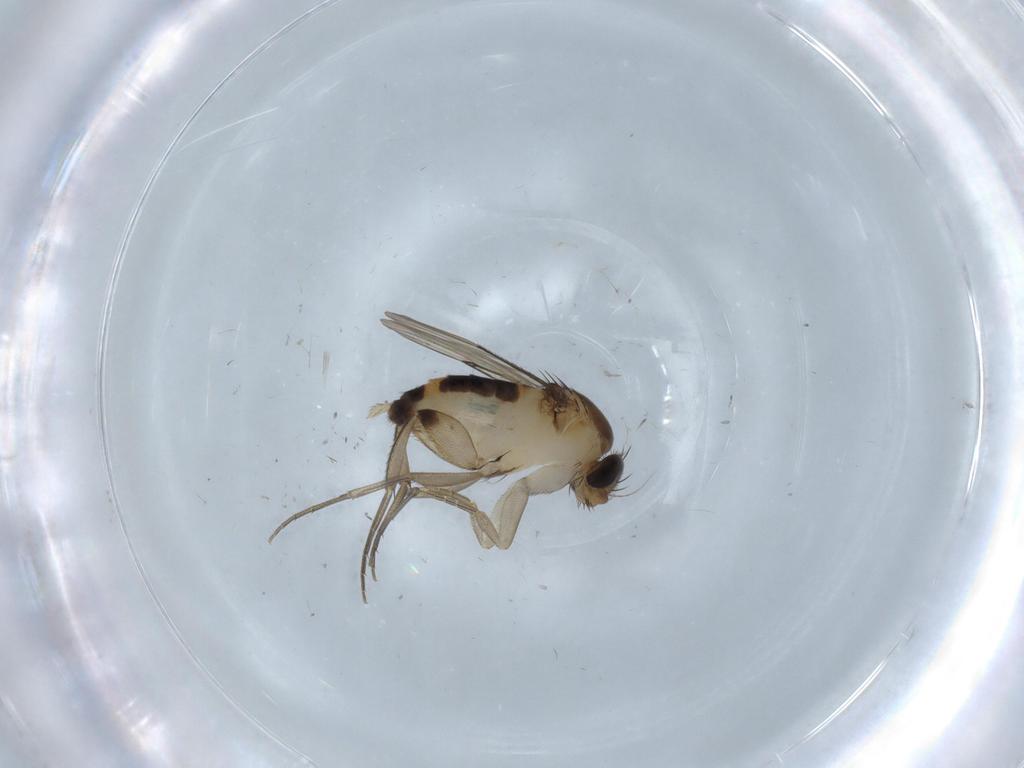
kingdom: Animalia
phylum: Arthropoda
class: Insecta
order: Diptera
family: Cecidomyiidae
